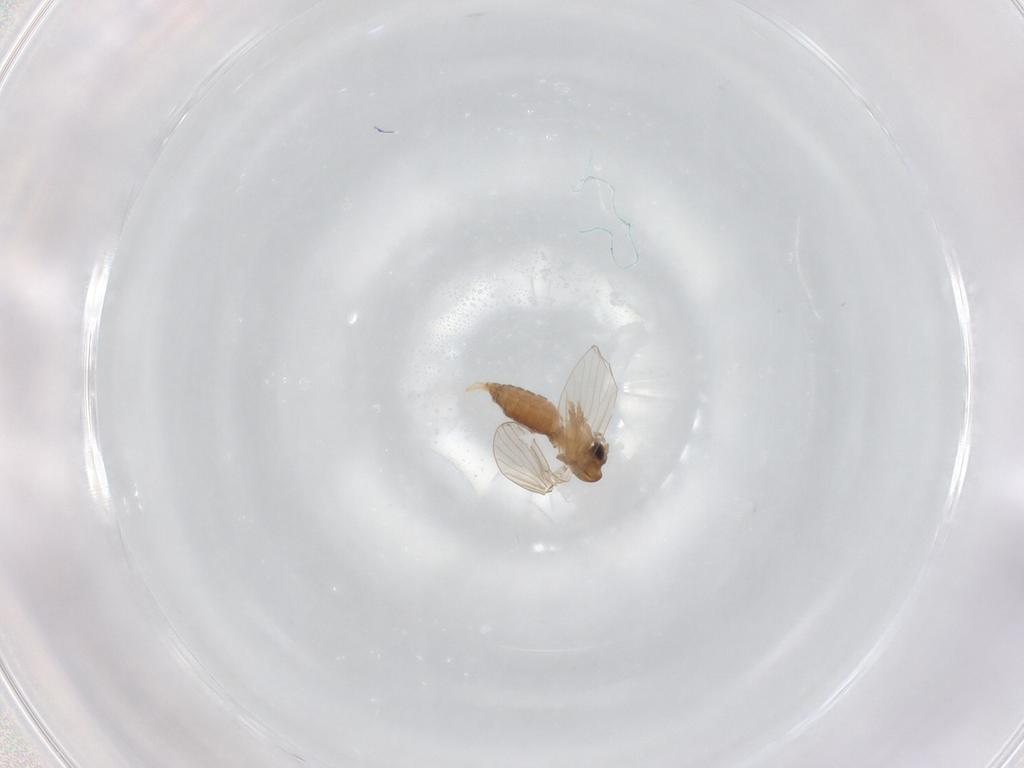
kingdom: Animalia
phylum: Arthropoda
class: Insecta
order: Diptera
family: Psychodidae
